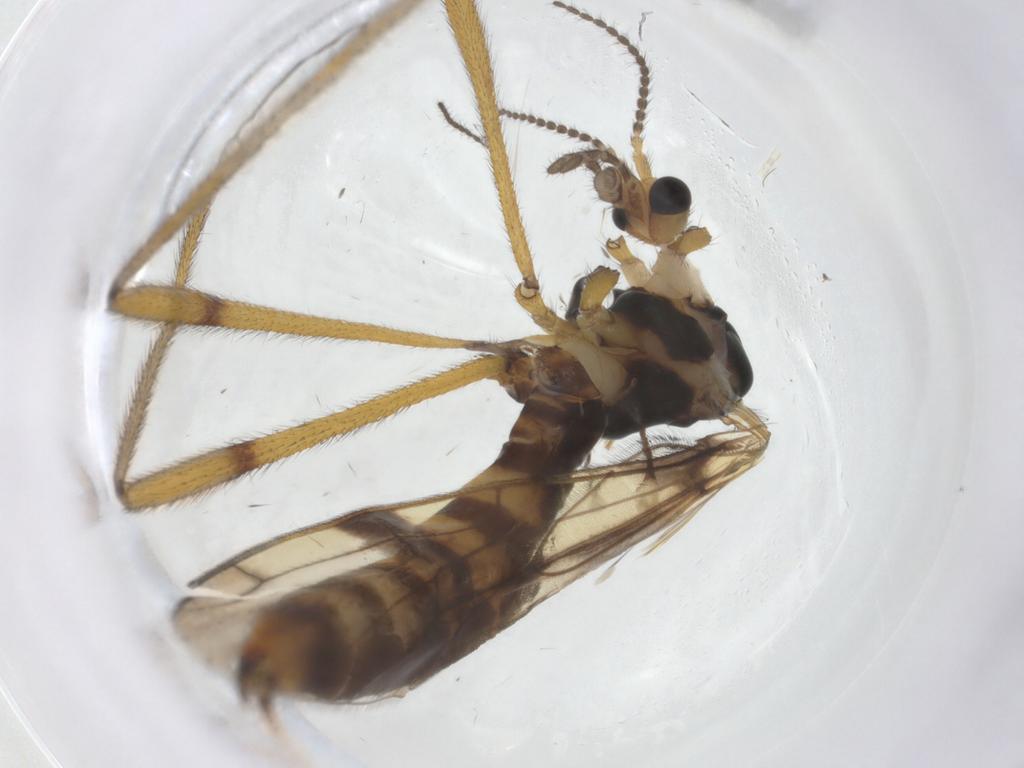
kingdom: Animalia
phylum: Arthropoda
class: Insecta
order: Diptera
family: Limoniidae
